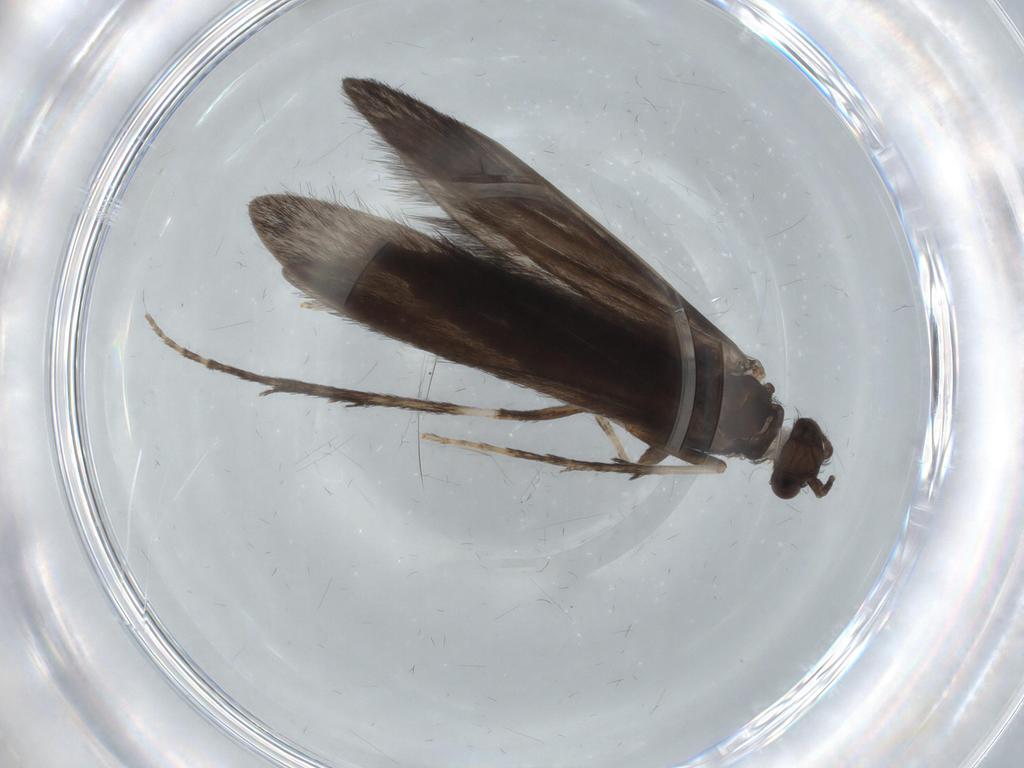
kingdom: Animalia
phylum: Arthropoda
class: Insecta
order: Trichoptera
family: Xiphocentronidae
